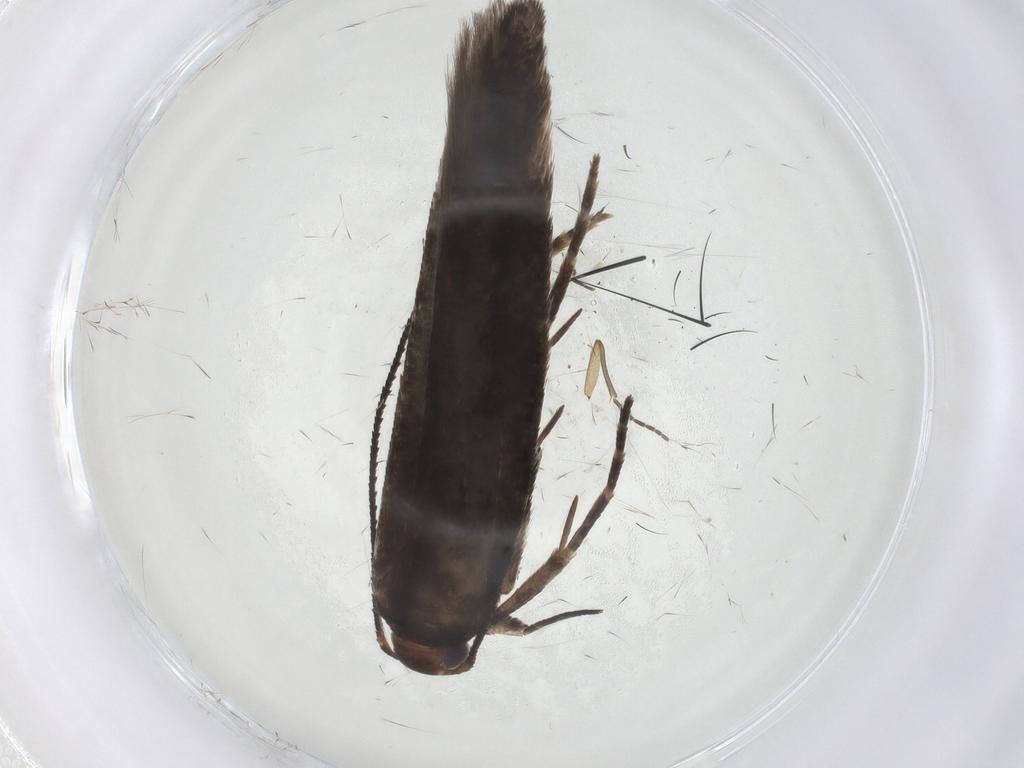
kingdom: Animalia
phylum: Arthropoda
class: Insecta
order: Lepidoptera
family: Gelechiidae
